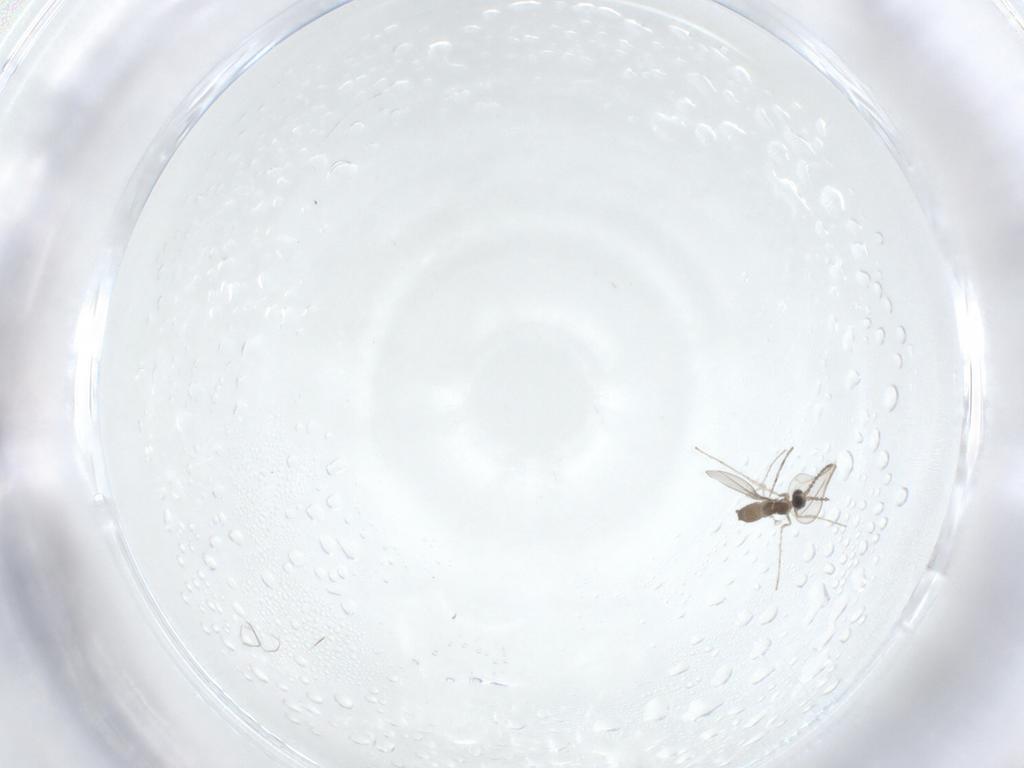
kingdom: Animalia
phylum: Arthropoda
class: Insecta
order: Diptera
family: Cecidomyiidae
